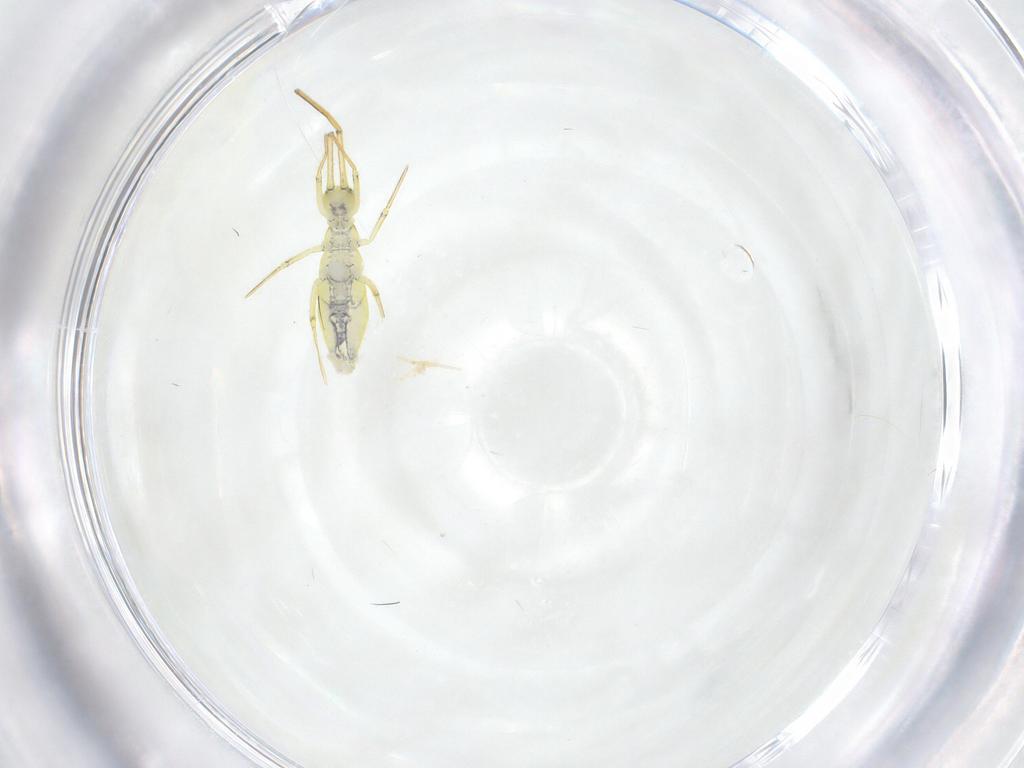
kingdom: Animalia
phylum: Arthropoda
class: Collembola
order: Entomobryomorpha
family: Entomobryidae
